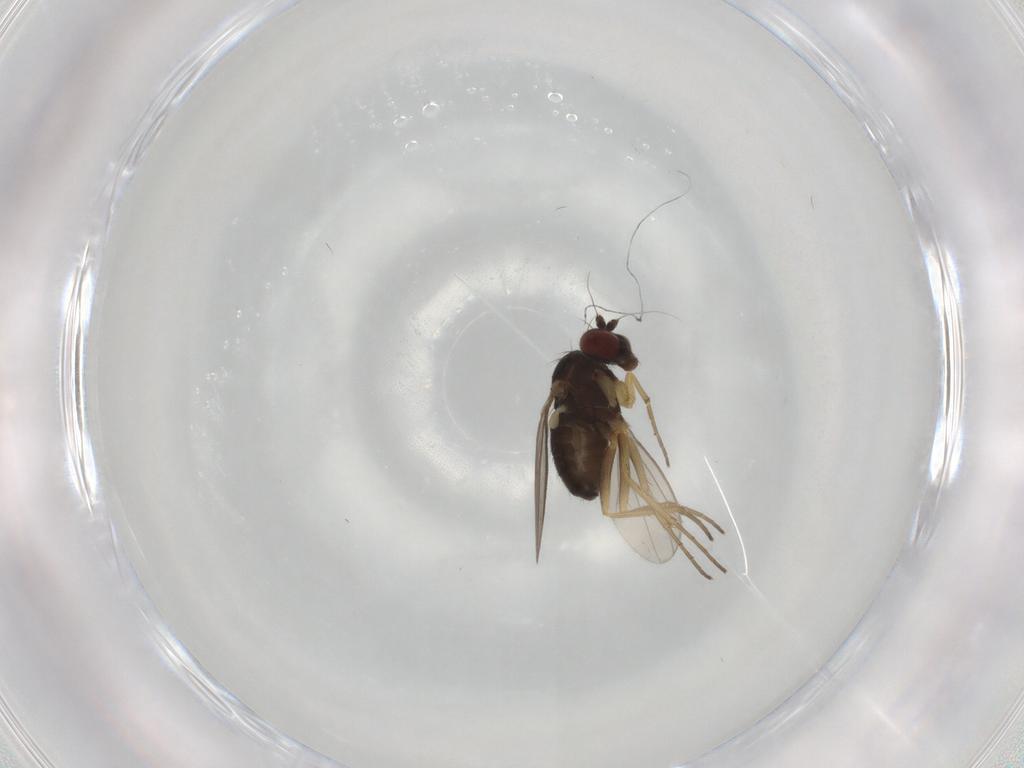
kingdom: Animalia
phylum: Arthropoda
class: Insecta
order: Diptera
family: Dolichopodidae
